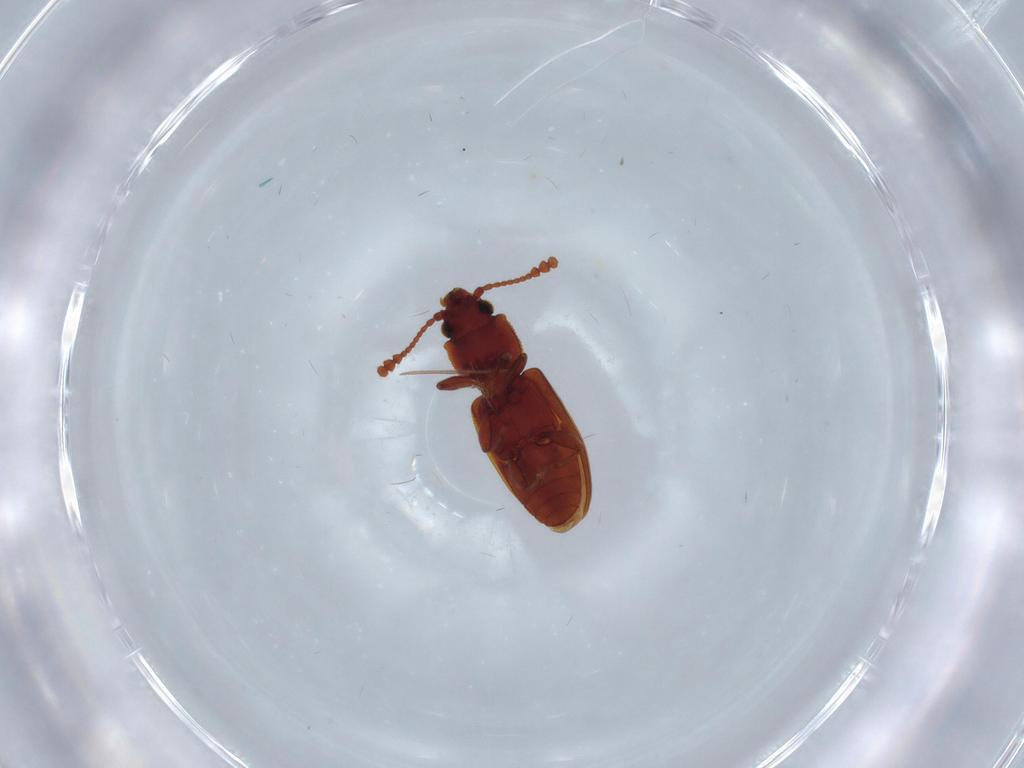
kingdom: Animalia
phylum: Arthropoda
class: Insecta
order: Coleoptera
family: Silvanidae
